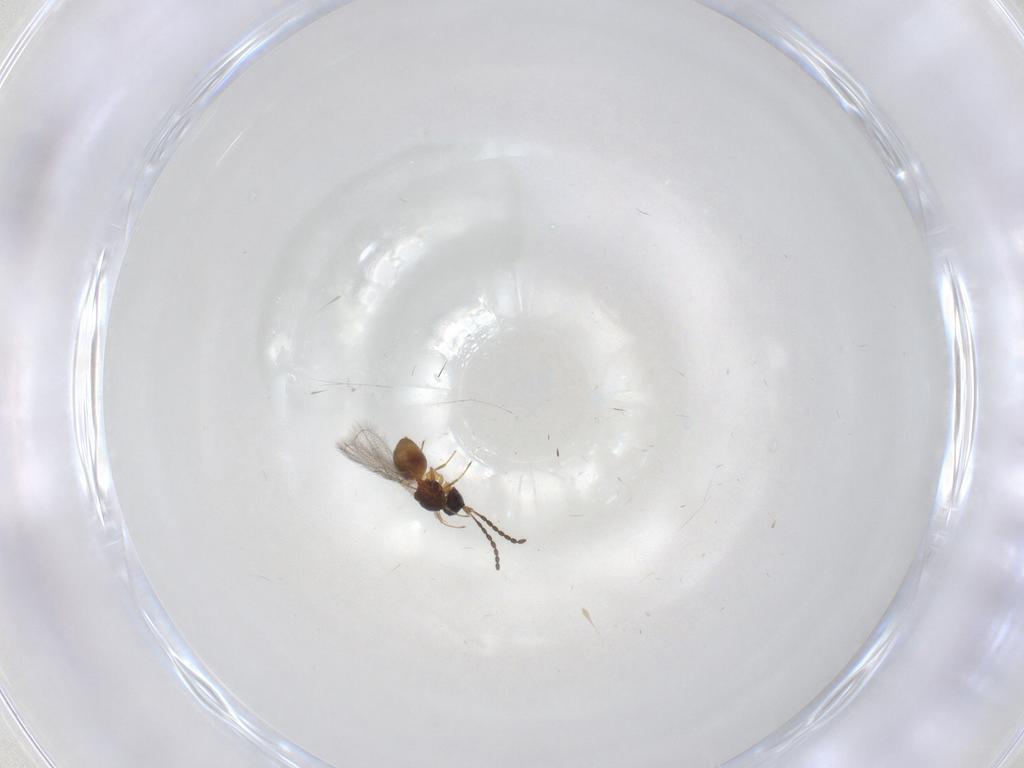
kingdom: Animalia
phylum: Arthropoda
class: Insecta
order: Hymenoptera
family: Figitidae
